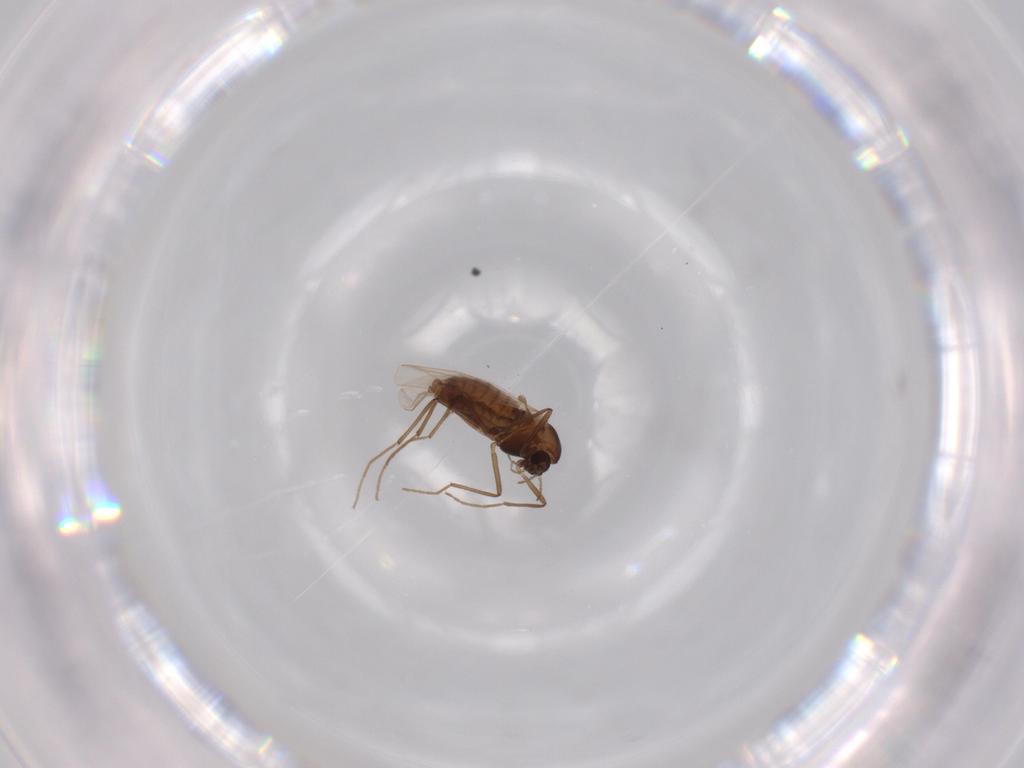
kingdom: Animalia
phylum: Arthropoda
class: Insecta
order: Diptera
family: Chironomidae
